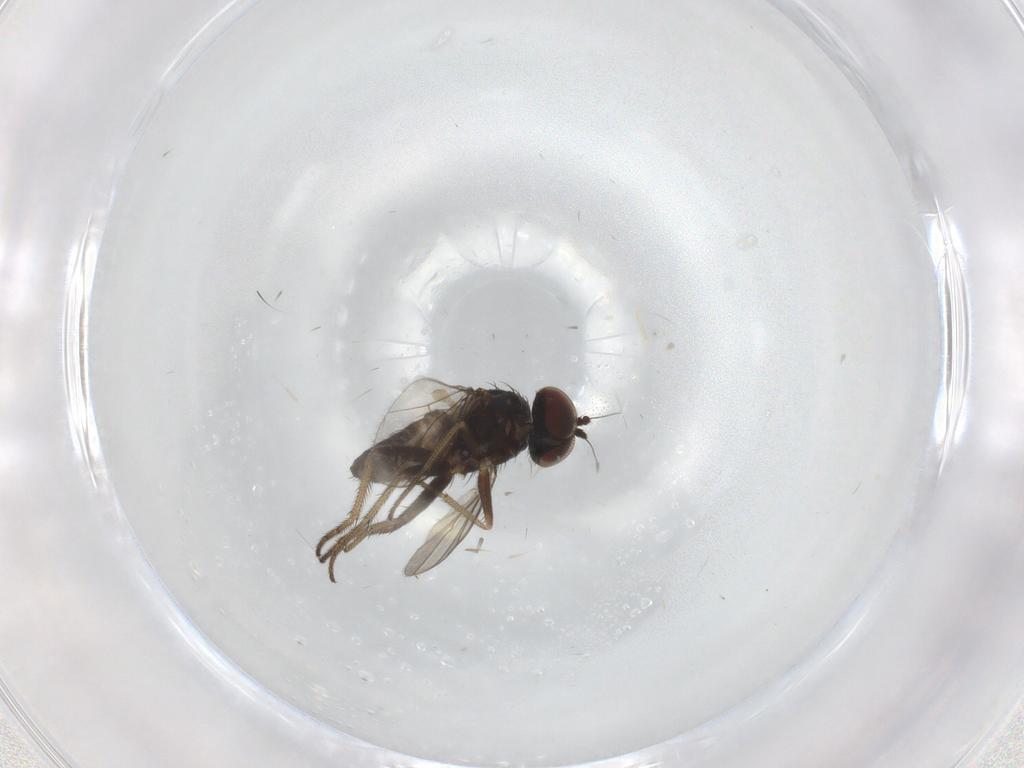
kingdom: Animalia
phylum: Arthropoda
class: Insecta
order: Diptera
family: Dolichopodidae
